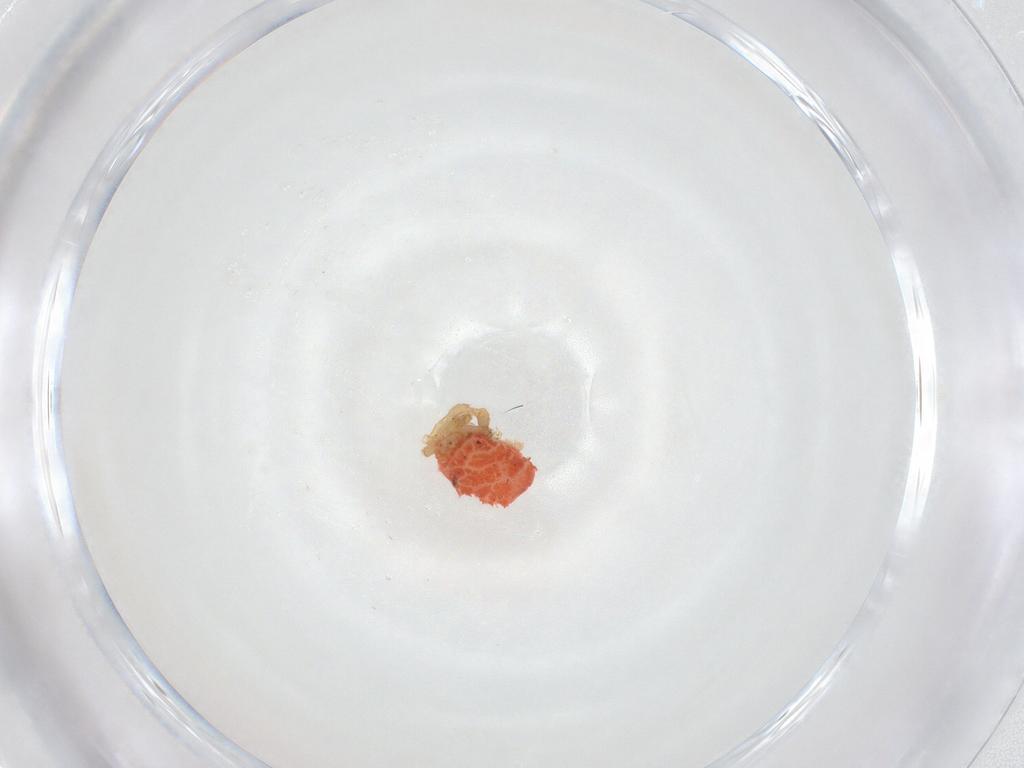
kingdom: Animalia
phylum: Arthropoda
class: Arachnida
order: Trombidiformes
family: Trombidiidae
